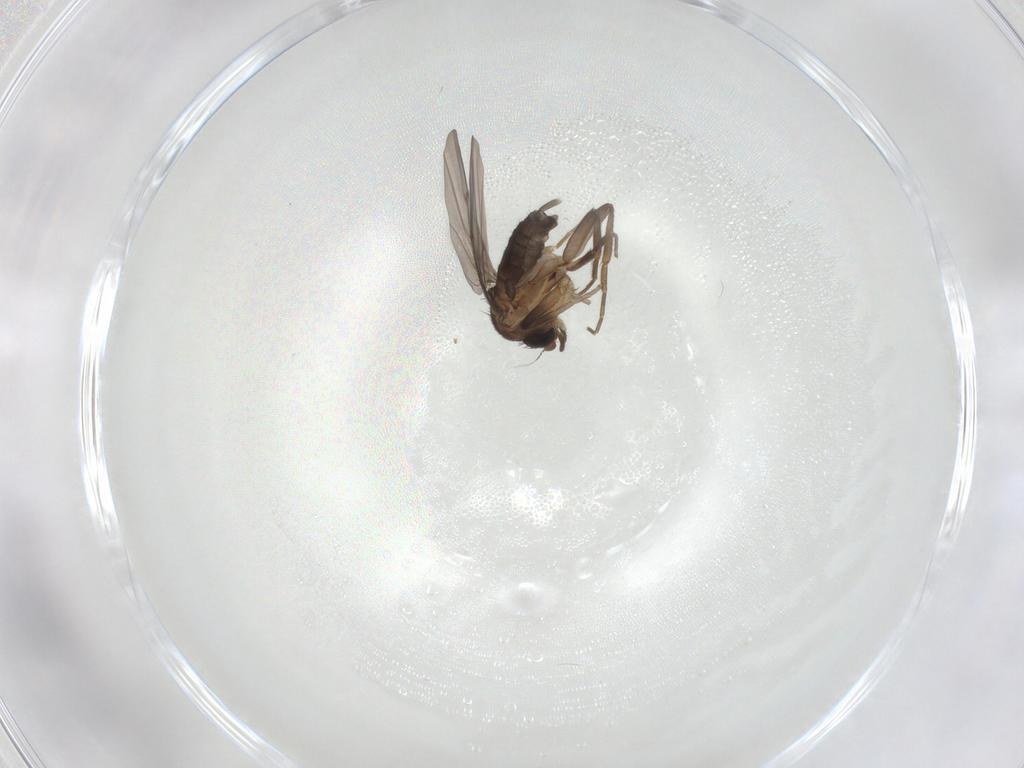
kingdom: Animalia
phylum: Arthropoda
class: Insecta
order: Diptera
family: Phoridae
